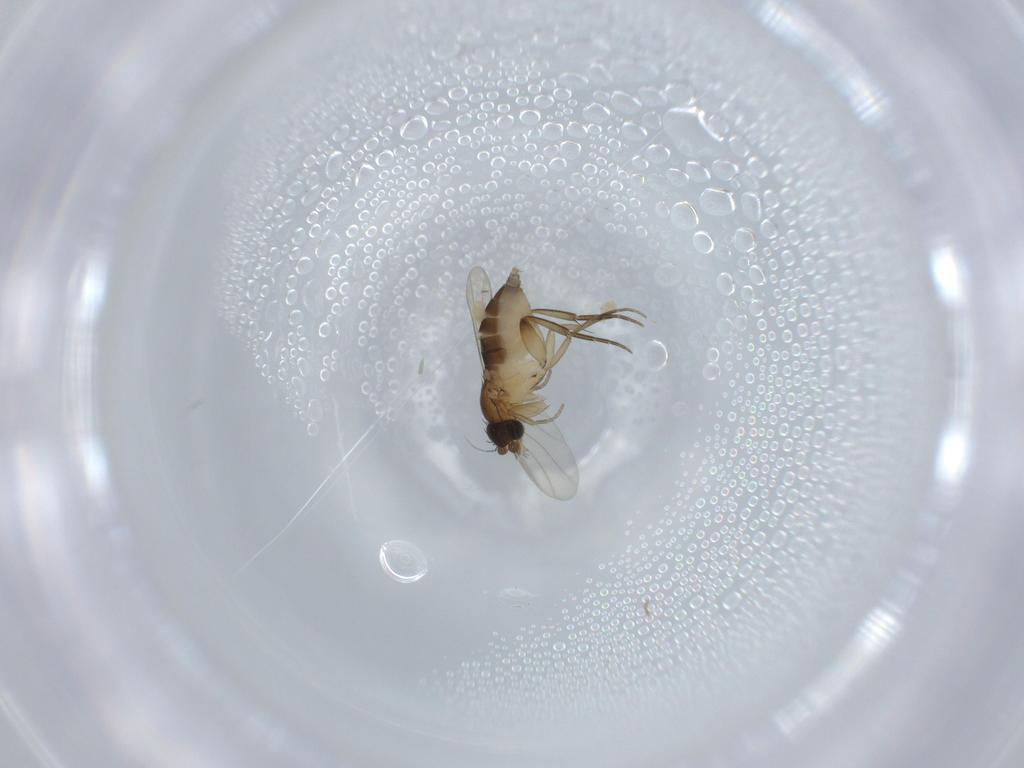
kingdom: Animalia
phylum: Arthropoda
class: Insecta
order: Diptera
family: Phoridae
